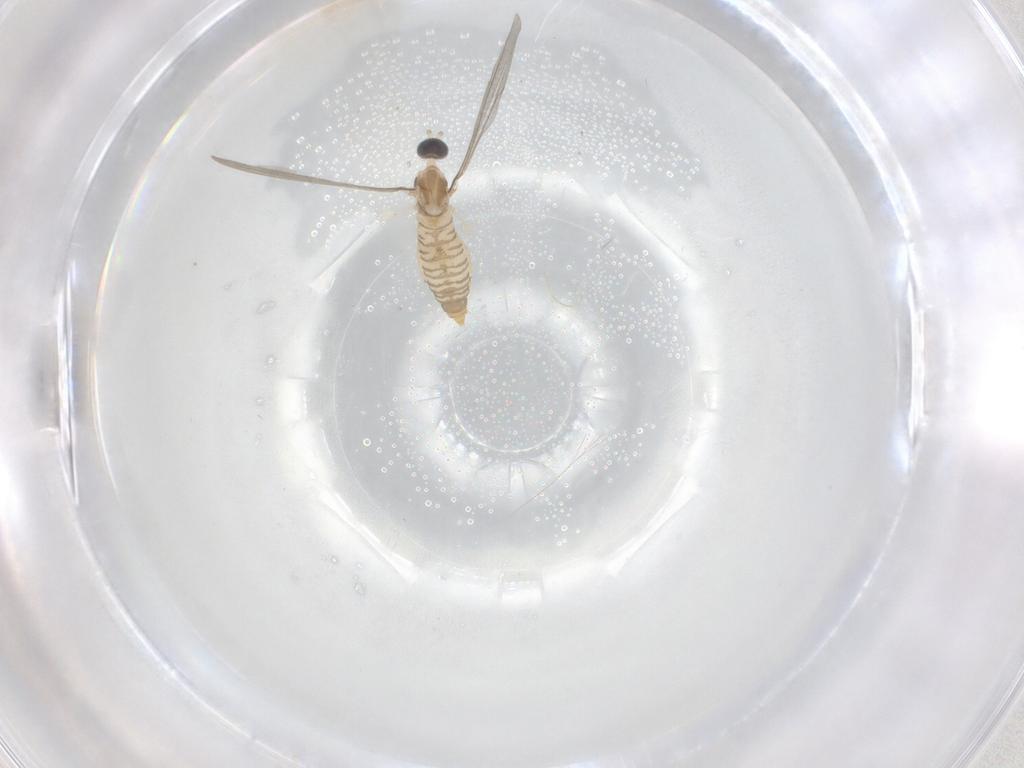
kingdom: Animalia
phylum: Arthropoda
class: Insecta
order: Diptera
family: Cecidomyiidae
